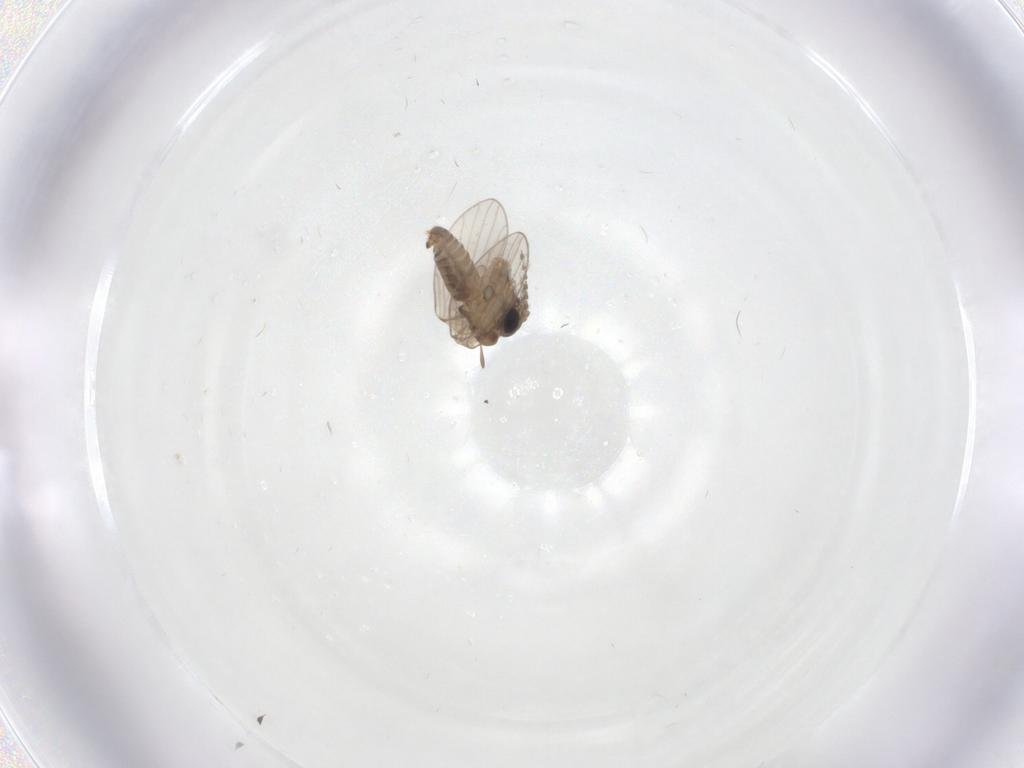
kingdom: Animalia
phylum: Arthropoda
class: Insecta
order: Diptera
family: Psychodidae
